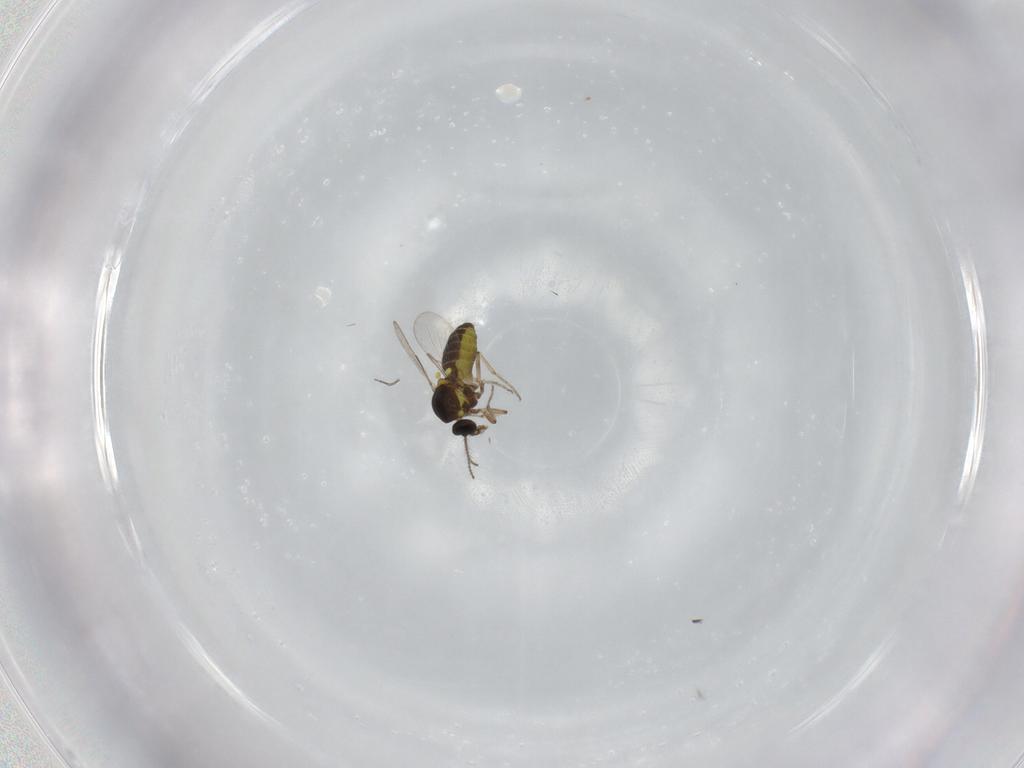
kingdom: Animalia
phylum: Arthropoda
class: Insecta
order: Diptera
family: Ceratopogonidae
